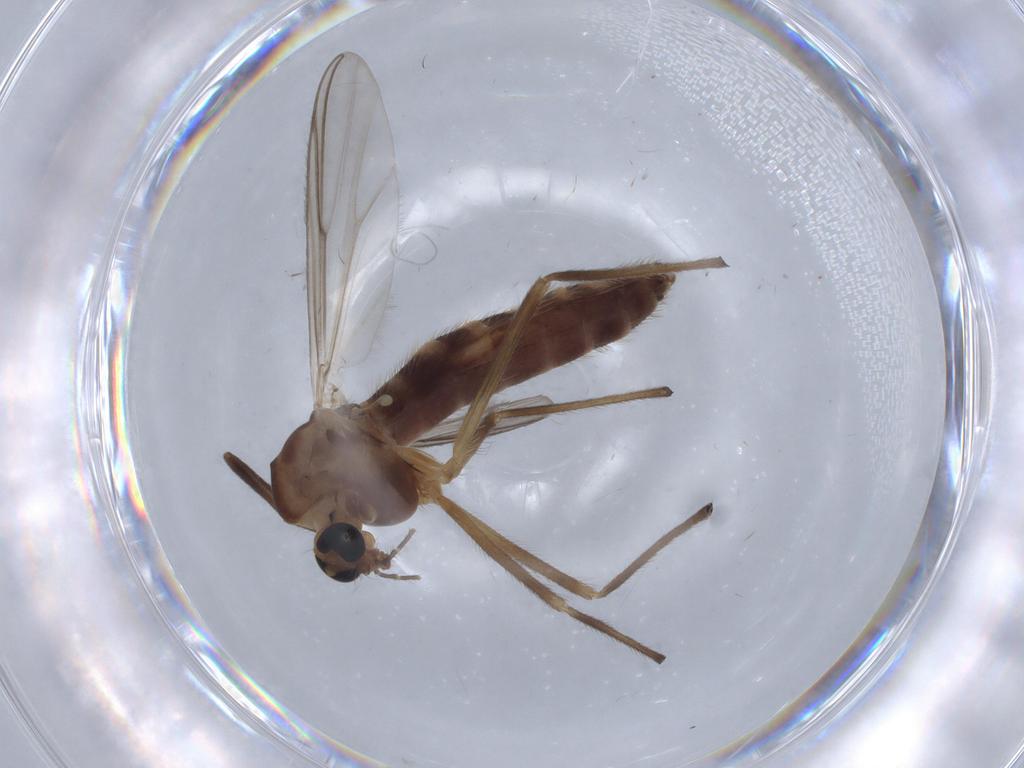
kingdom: Animalia
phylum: Arthropoda
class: Insecta
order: Diptera
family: Chironomidae
